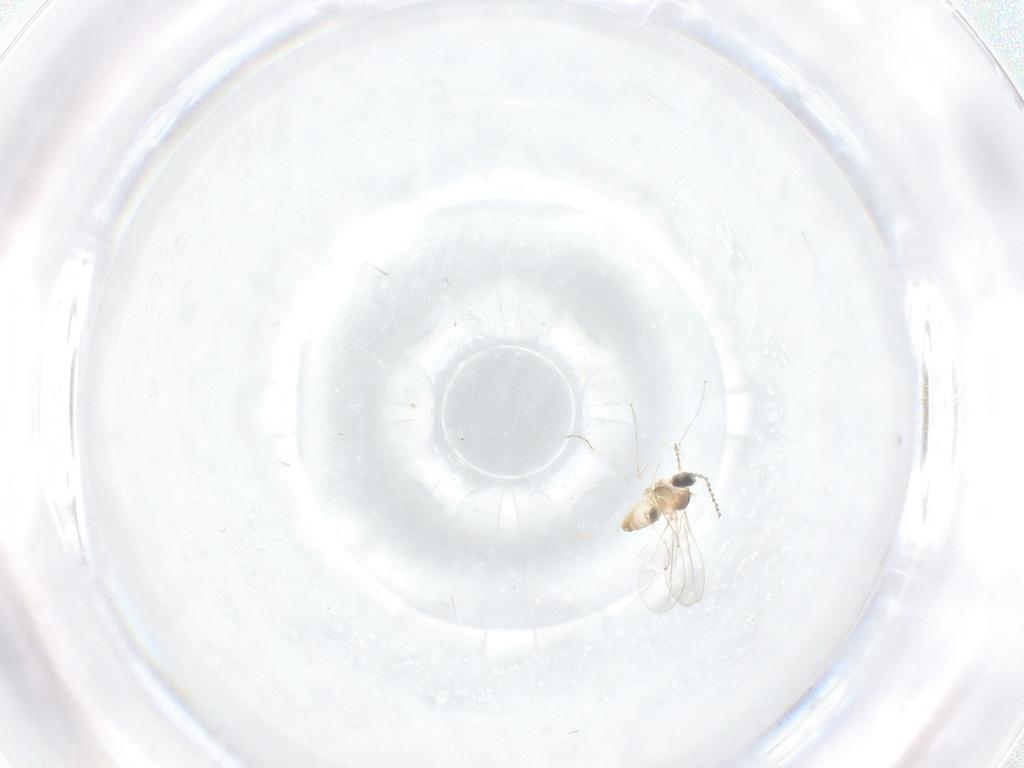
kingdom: Animalia
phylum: Arthropoda
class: Insecta
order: Diptera
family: Cecidomyiidae
